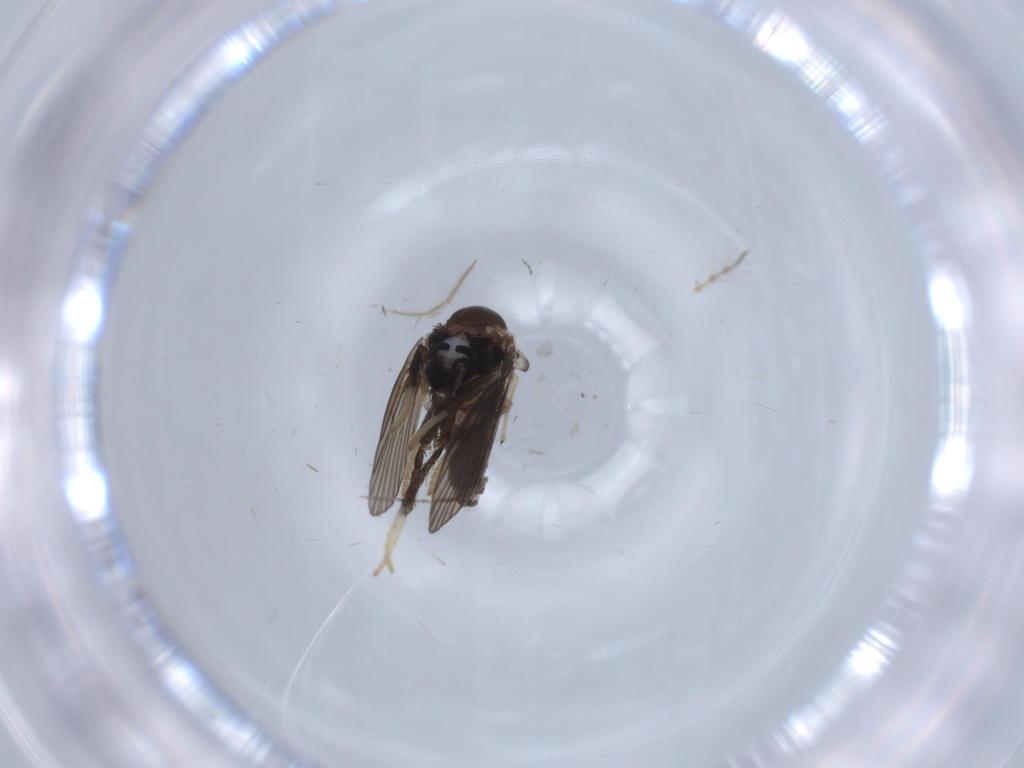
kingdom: Animalia
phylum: Arthropoda
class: Insecta
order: Diptera
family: Psychodidae
